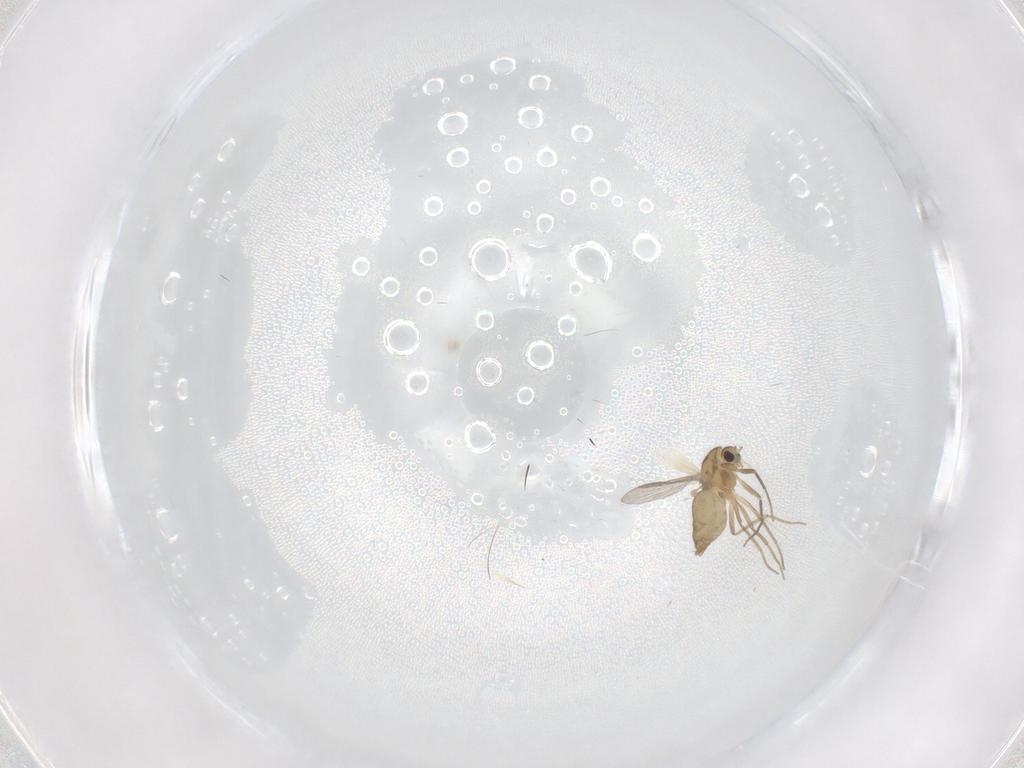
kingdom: Animalia
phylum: Arthropoda
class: Insecta
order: Diptera
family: Chironomidae
